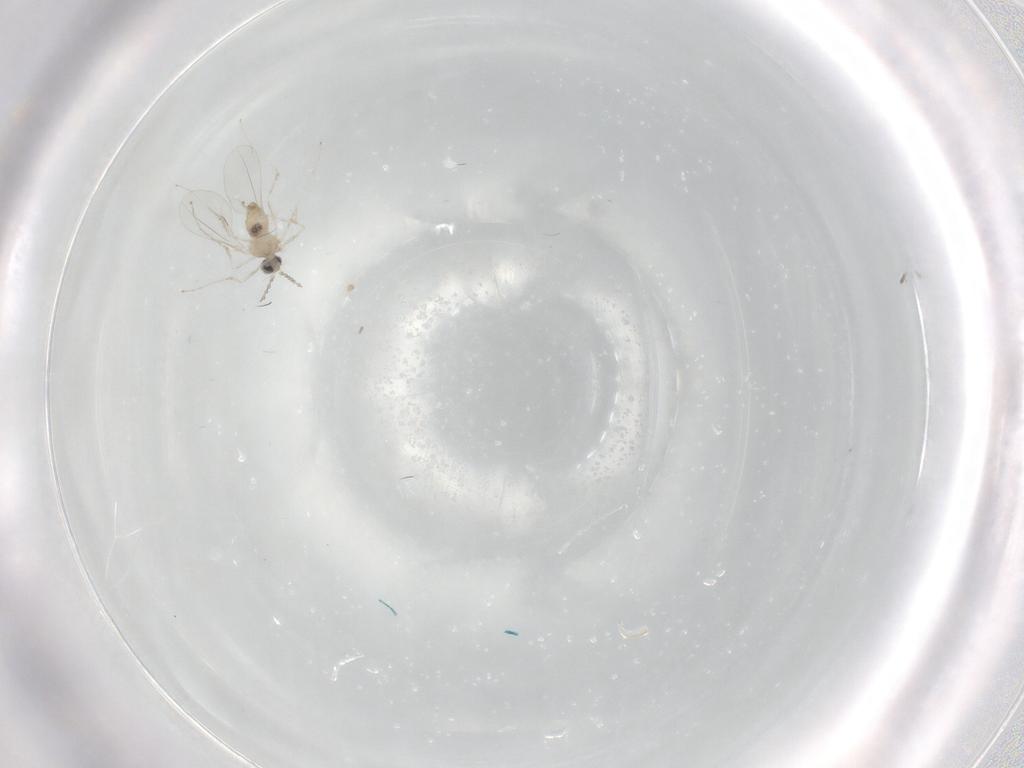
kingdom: Animalia
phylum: Arthropoda
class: Insecta
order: Diptera
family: Cecidomyiidae
